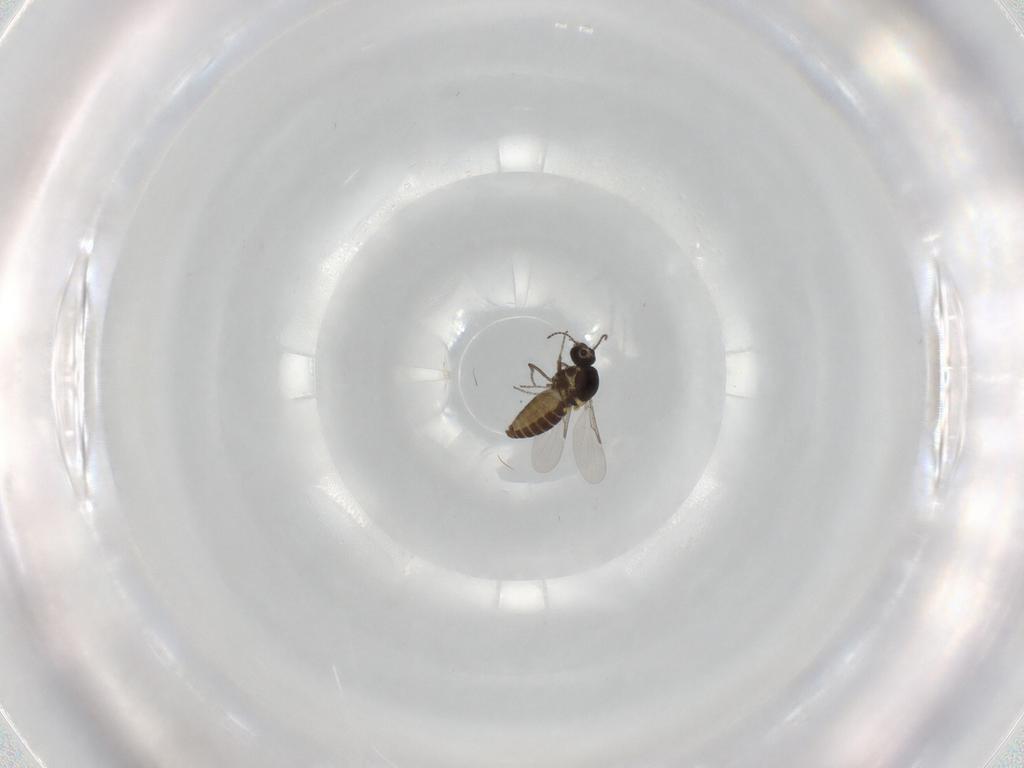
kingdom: Animalia
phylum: Arthropoda
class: Insecta
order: Diptera
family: Ceratopogonidae
